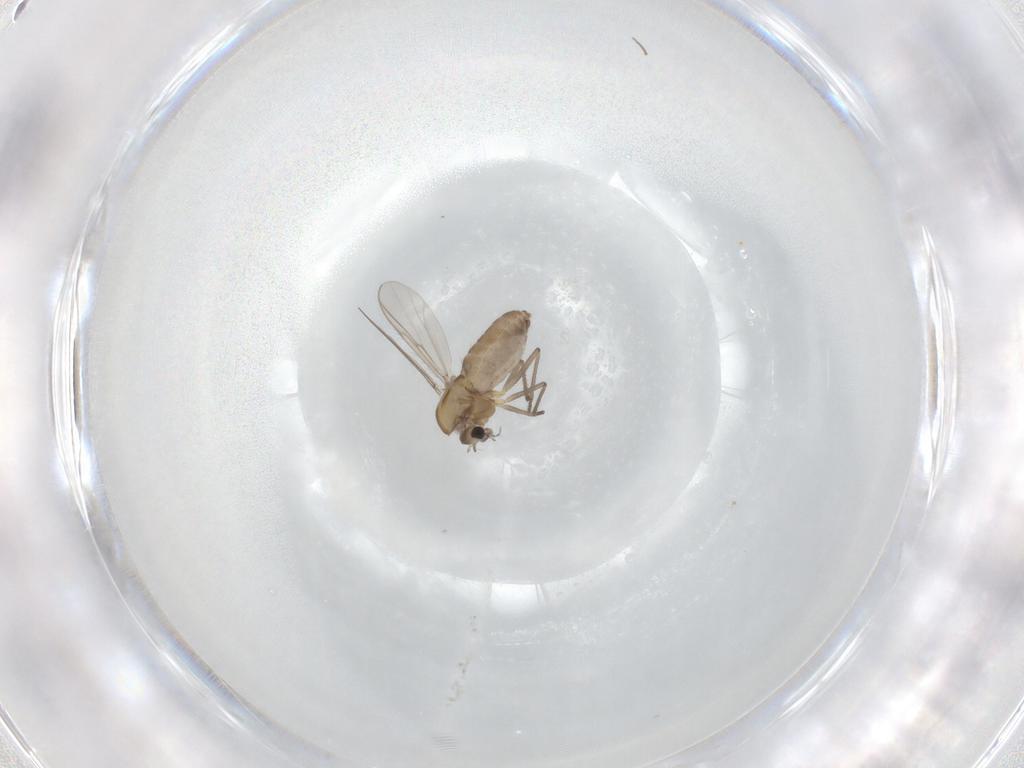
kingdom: Animalia
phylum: Arthropoda
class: Insecta
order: Diptera
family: Chironomidae
